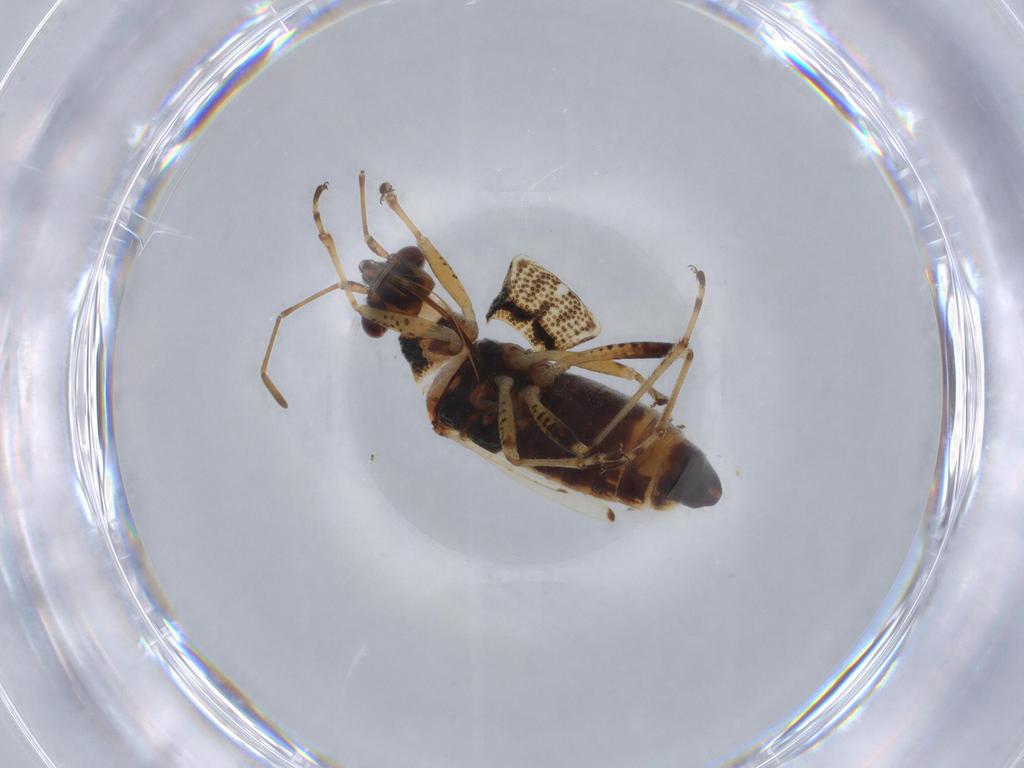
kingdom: Animalia
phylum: Arthropoda
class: Insecta
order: Hemiptera
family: Lygaeidae
